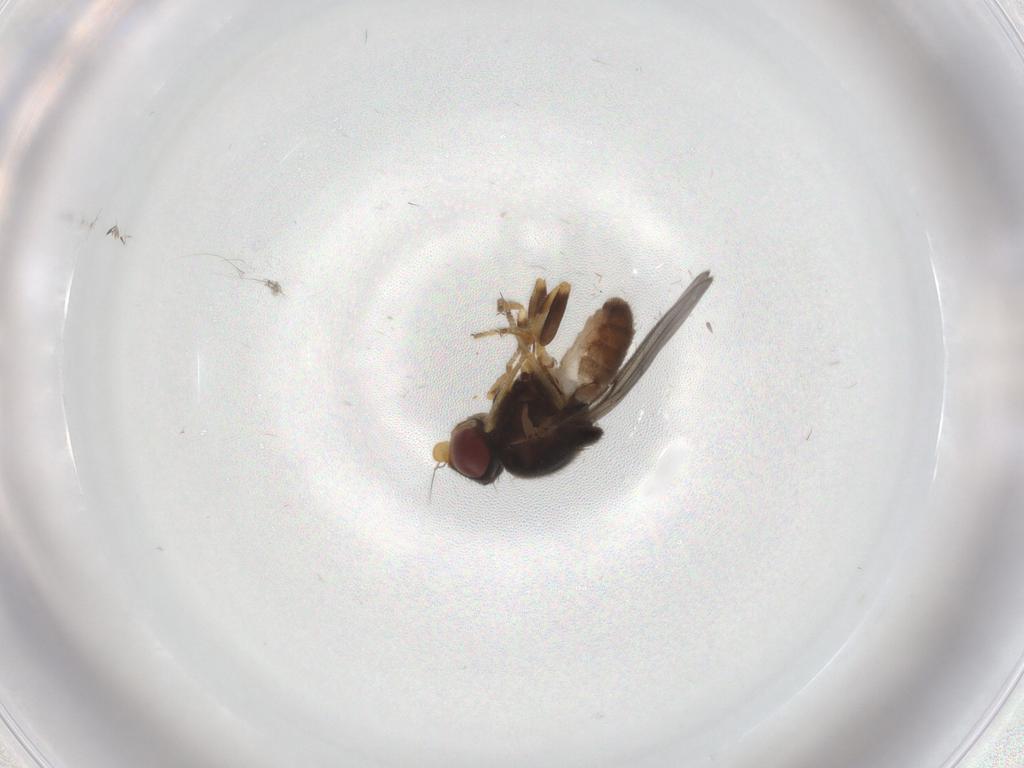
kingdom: Animalia
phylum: Arthropoda
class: Insecta
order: Diptera
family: Chloropidae
